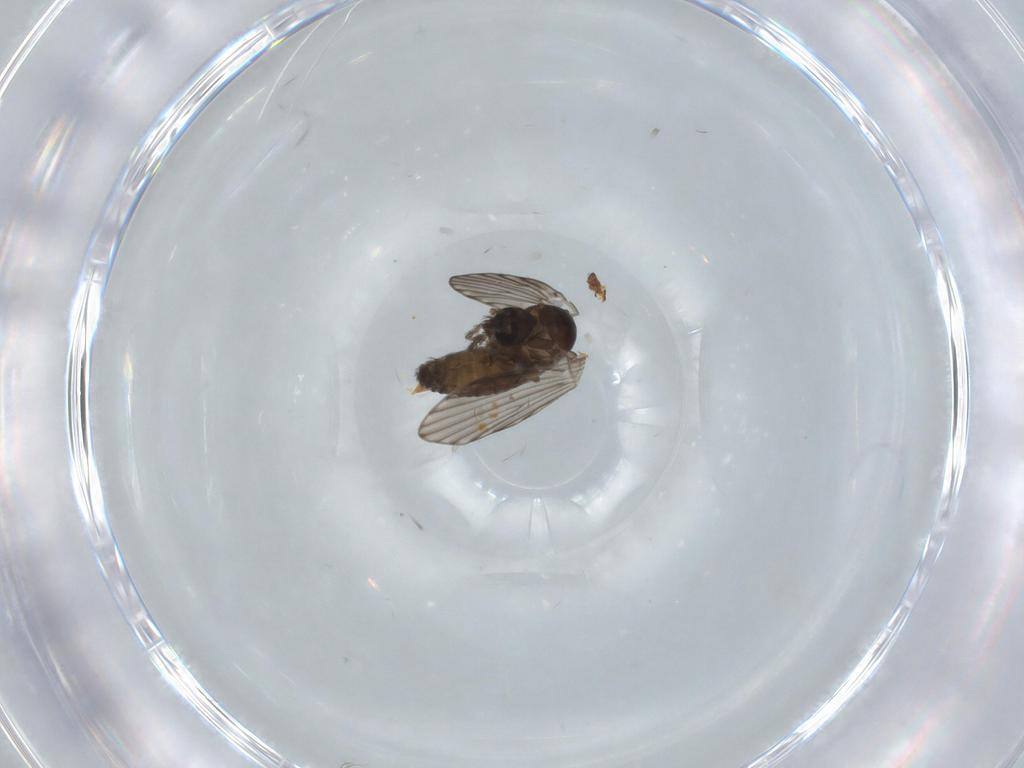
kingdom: Animalia
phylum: Arthropoda
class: Insecta
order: Diptera
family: Psychodidae
